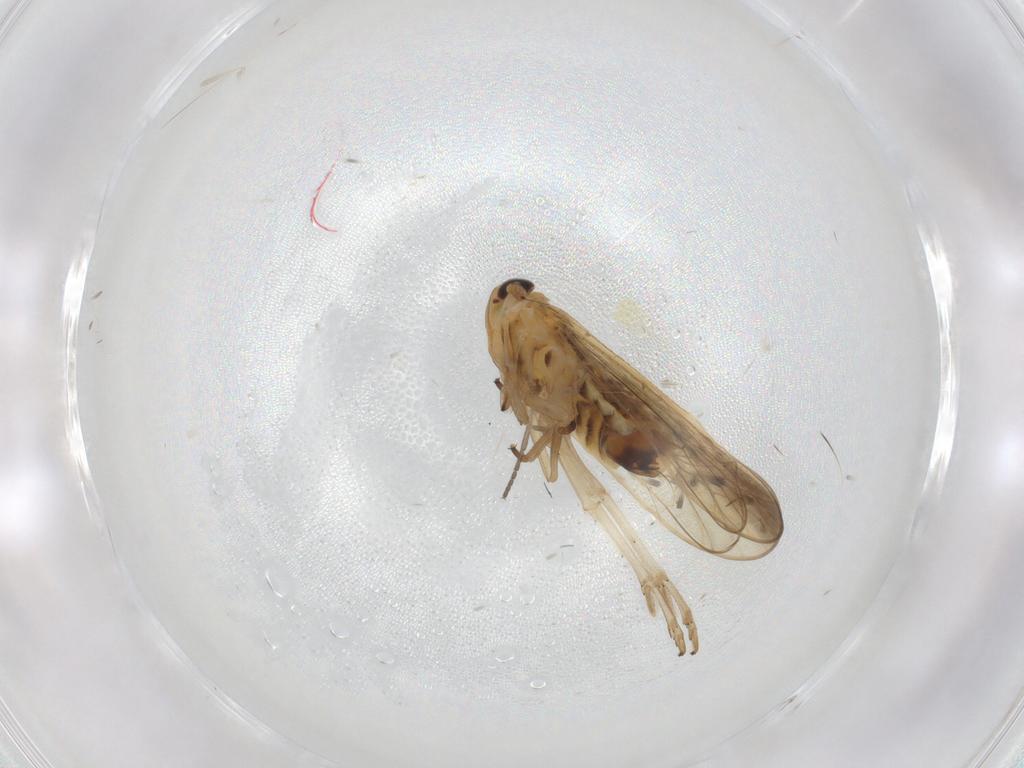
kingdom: Animalia
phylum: Arthropoda
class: Insecta
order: Hemiptera
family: Delphacidae
